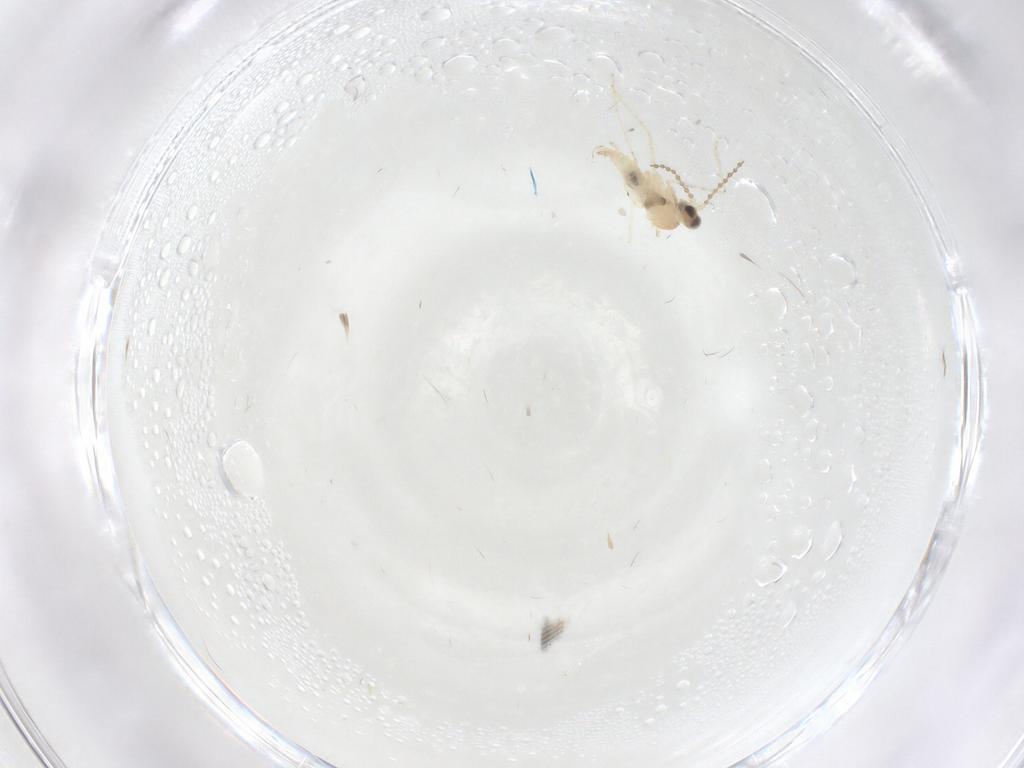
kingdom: Animalia
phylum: Arthropoda
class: Insecta
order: Diptera
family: Cecidomyiidae
